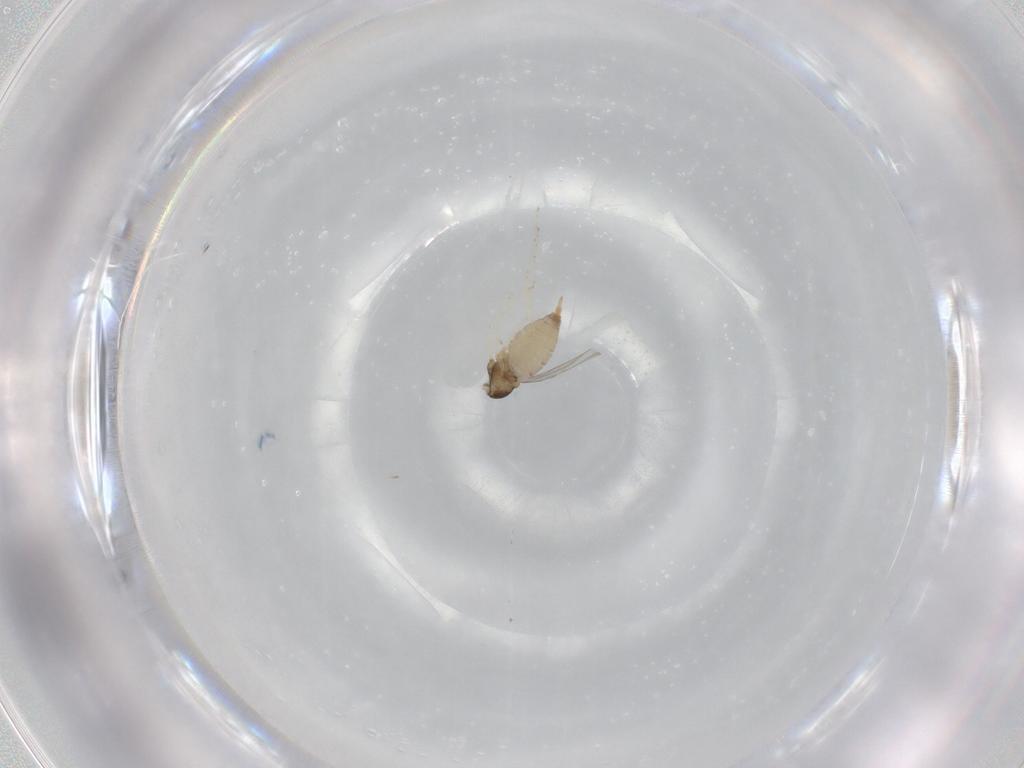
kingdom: Animalia
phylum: Arthropoda
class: Insecta
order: Diptera
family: Cecidomyiidae
